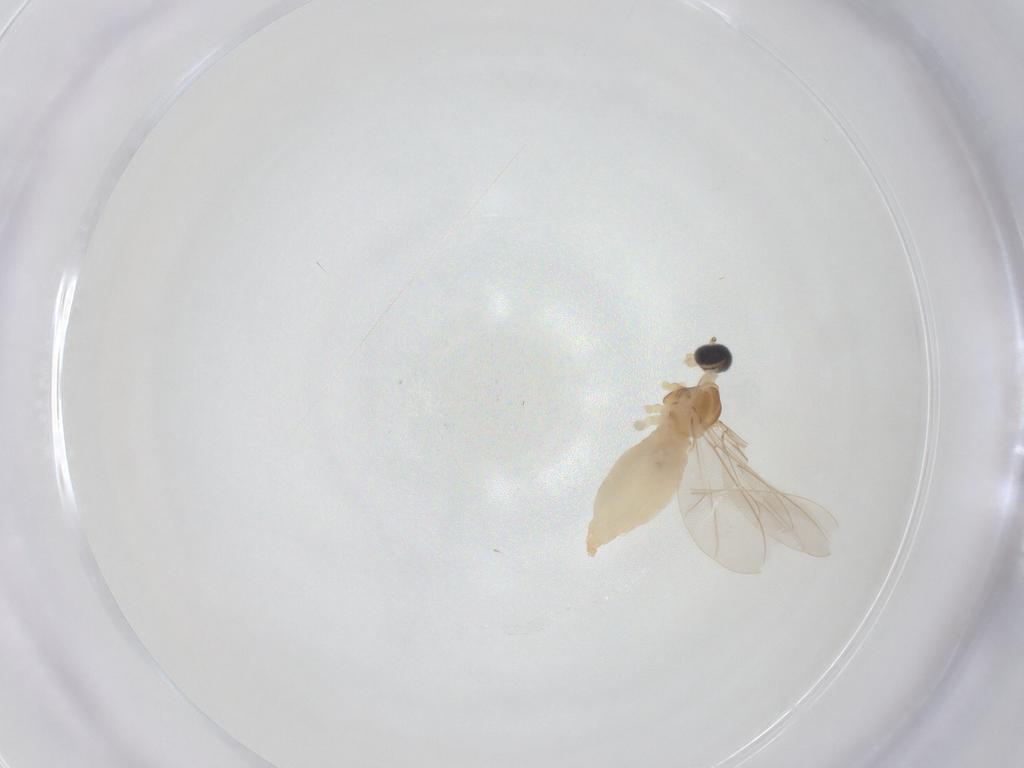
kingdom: Animalia
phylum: Arthropoda
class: Insecta
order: Diptera
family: Cecidomyiidae
